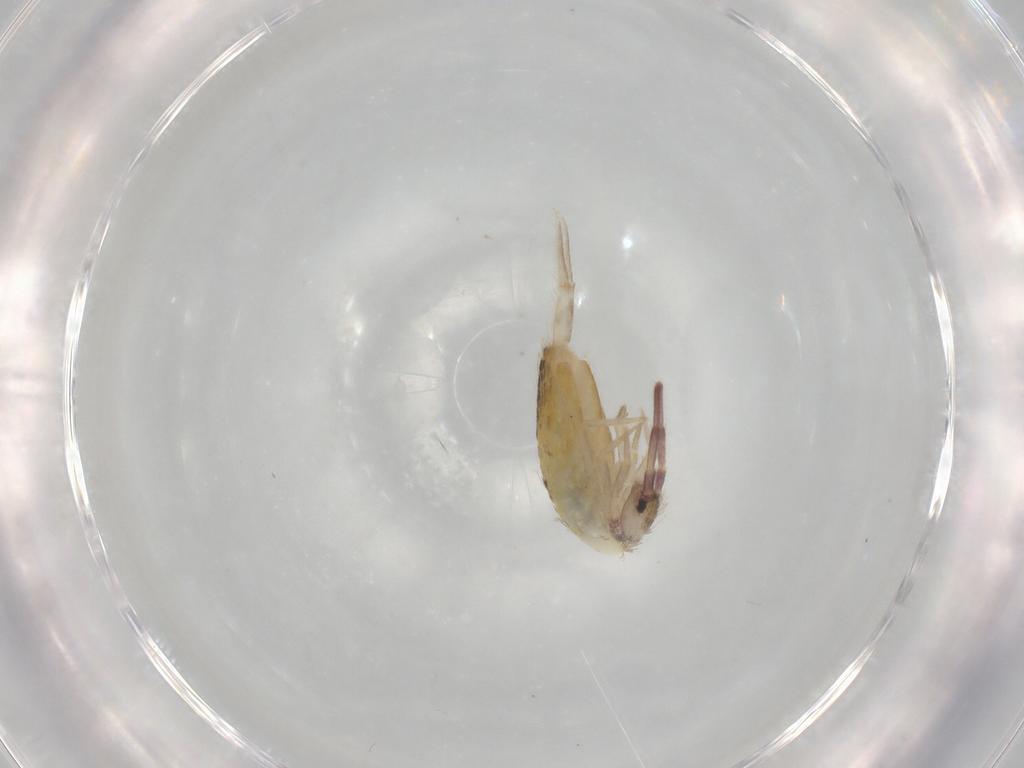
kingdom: Animalia
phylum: Arthropoda
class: Collembola
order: Entomobryomorpha
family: Entomobryidae
